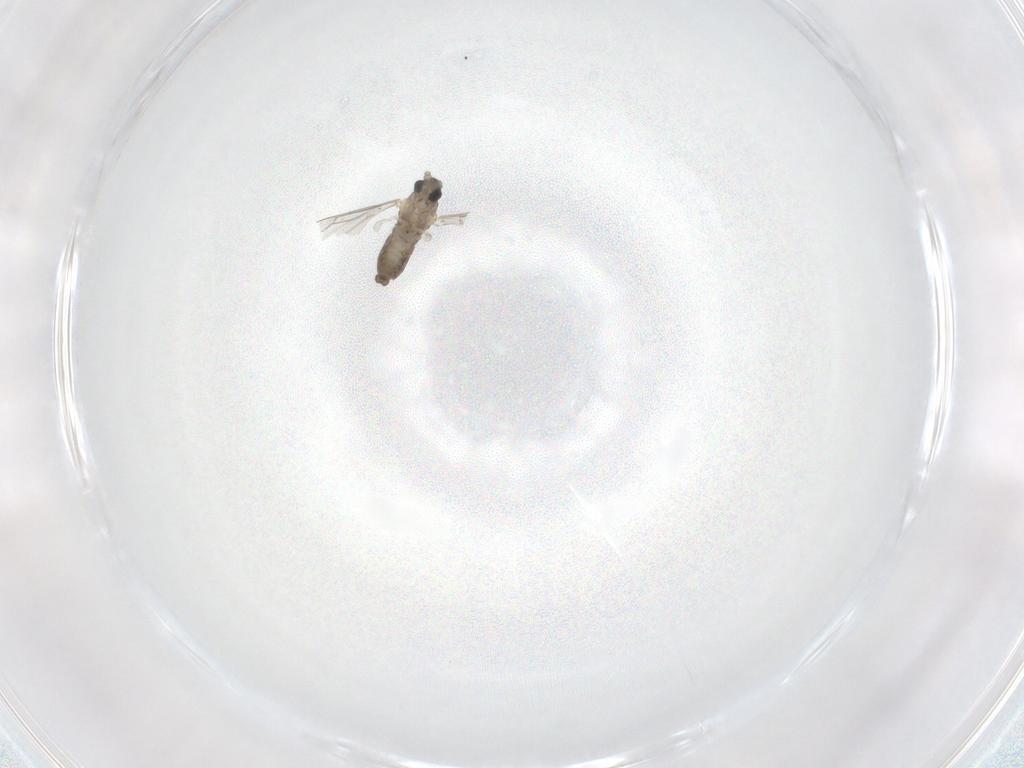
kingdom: Animalia
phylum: Arthropoda
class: Insecta
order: Diptera
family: Cecidomyiidae
